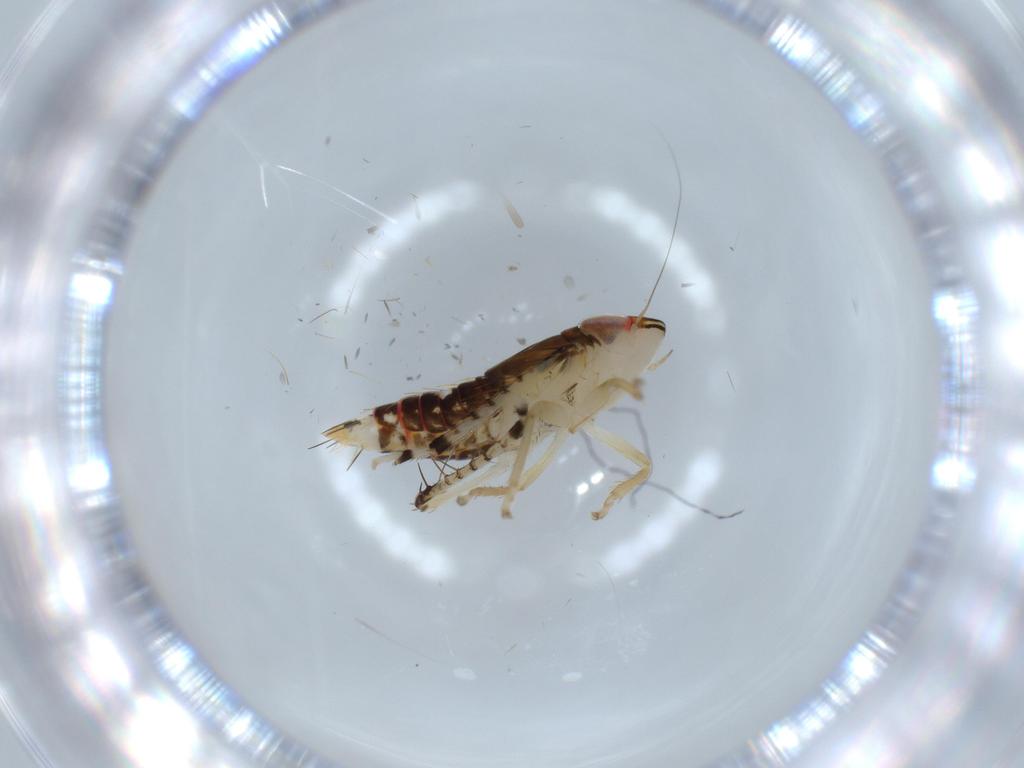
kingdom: Animalia
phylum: Arthropoda
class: Insecta
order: Hemiptera
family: Cicadellidae
